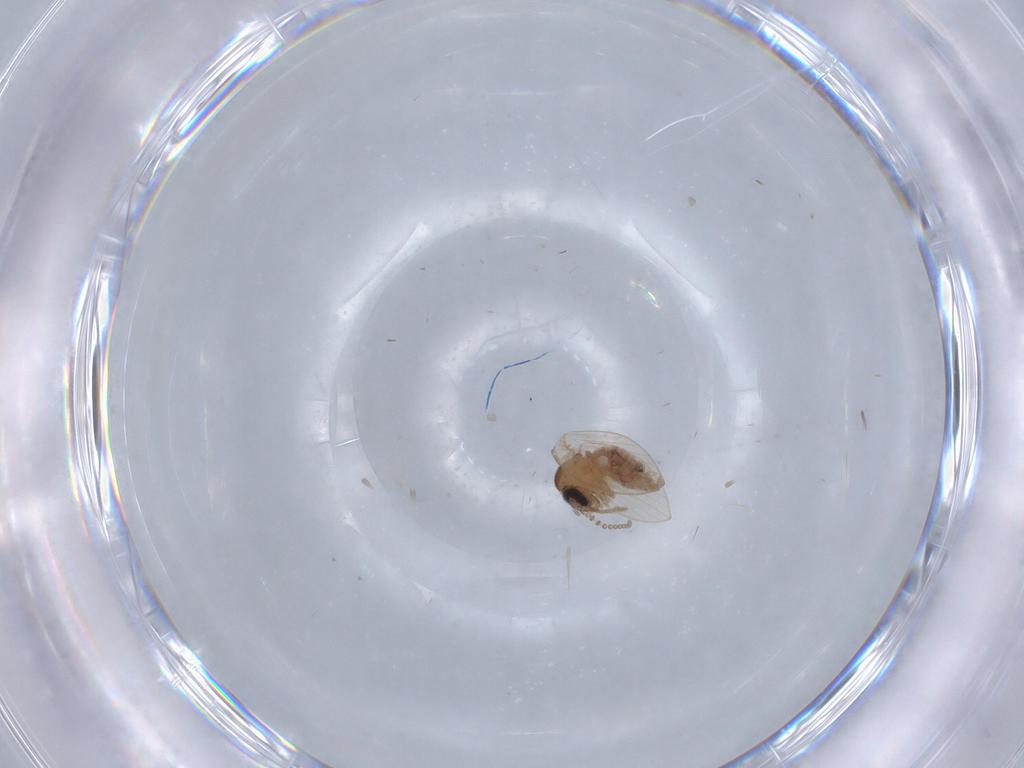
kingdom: Animalia
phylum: Arthropoda
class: Insecta
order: Diptera
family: Psychodidae
